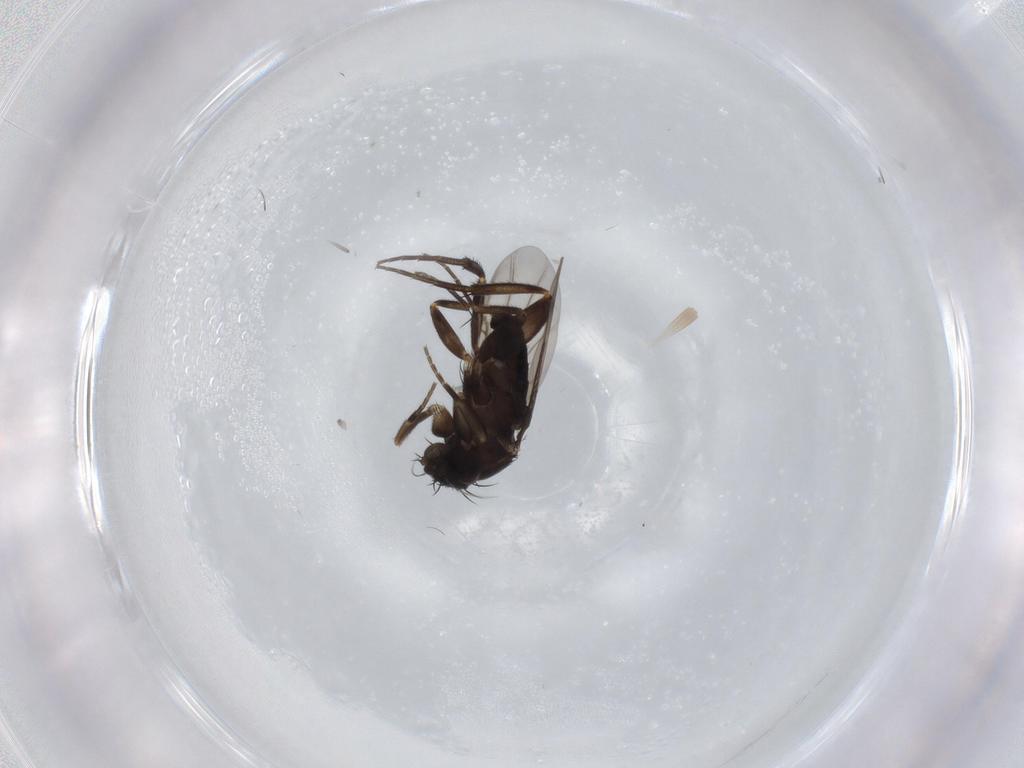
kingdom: Animalia
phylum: Arthropoda
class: Insecta
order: Diptera
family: Phoridae
